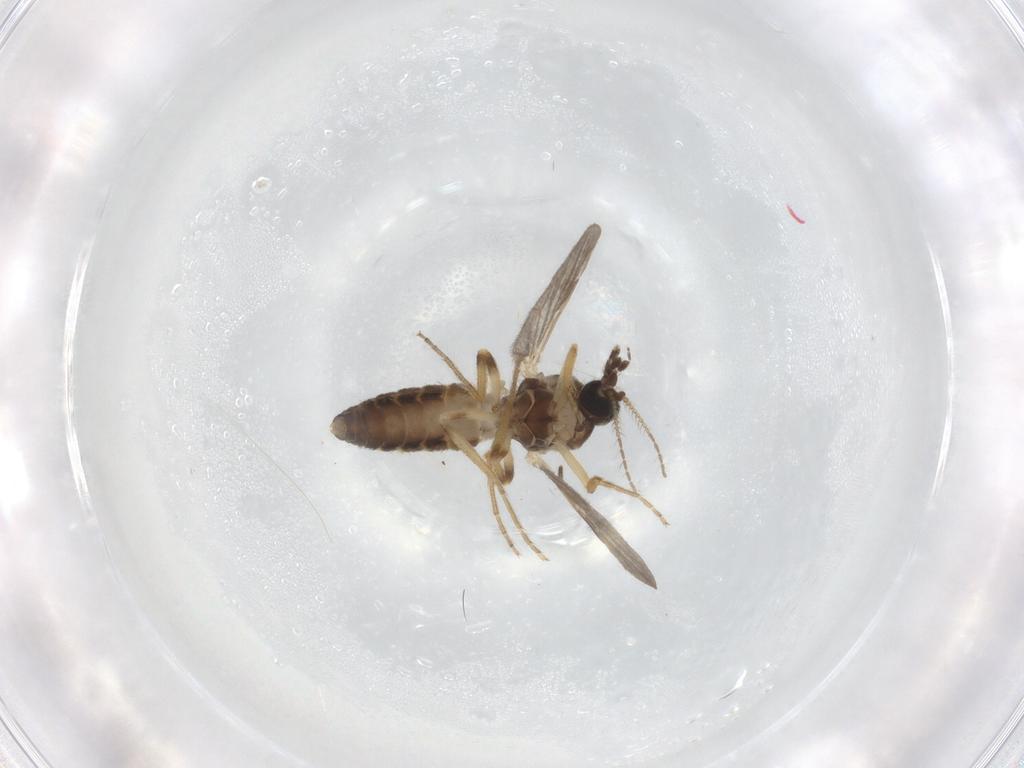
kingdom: Animalia
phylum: Arthropoda
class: Insecta
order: Diptera
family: Ceratopogonidae
